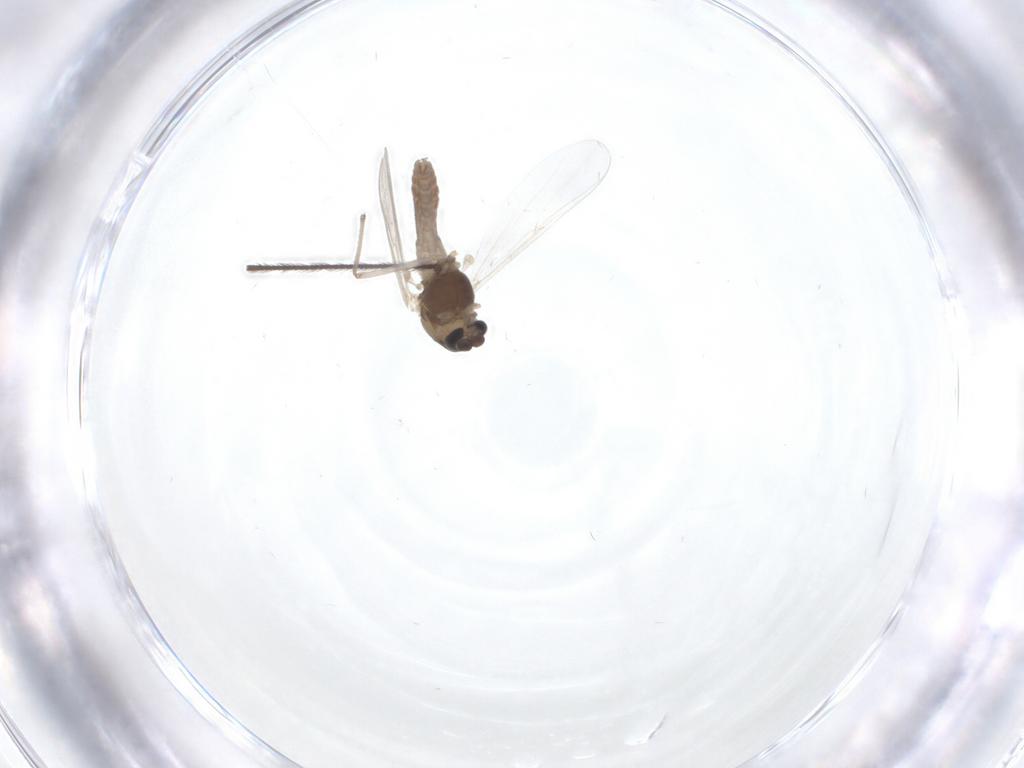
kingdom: Animalia
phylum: Arthropoda
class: Insecta
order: Diptera
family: Chironomidae
